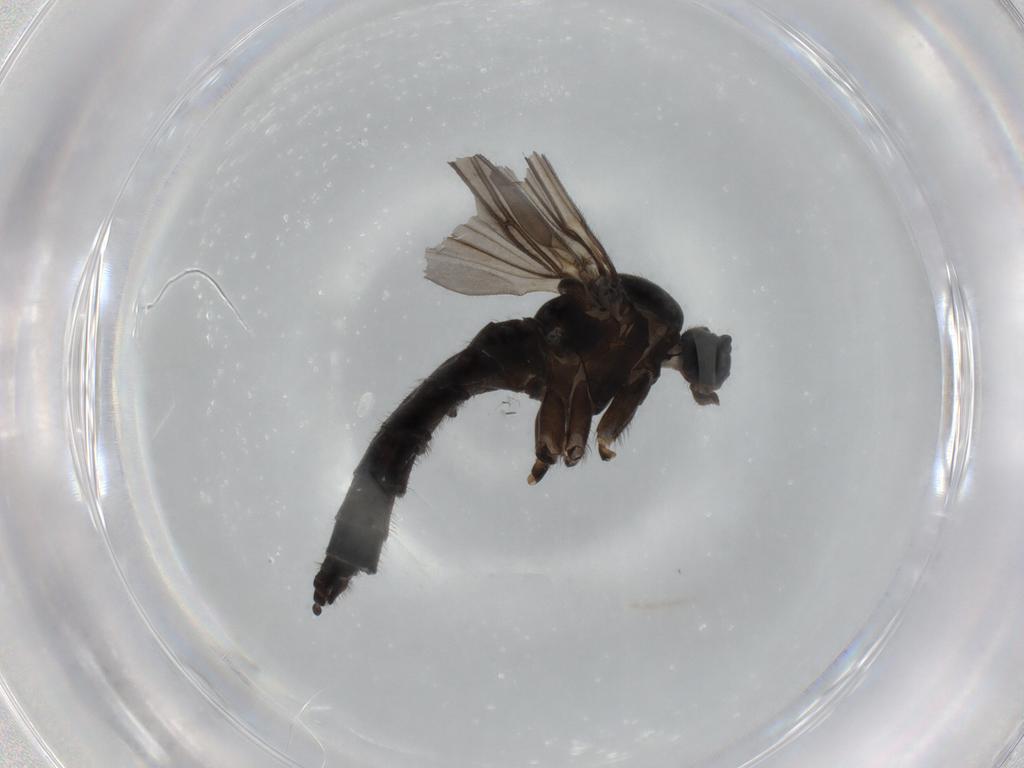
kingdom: Animalia
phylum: Arthropoda
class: Insecta
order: Diptera
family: Sciaridae
